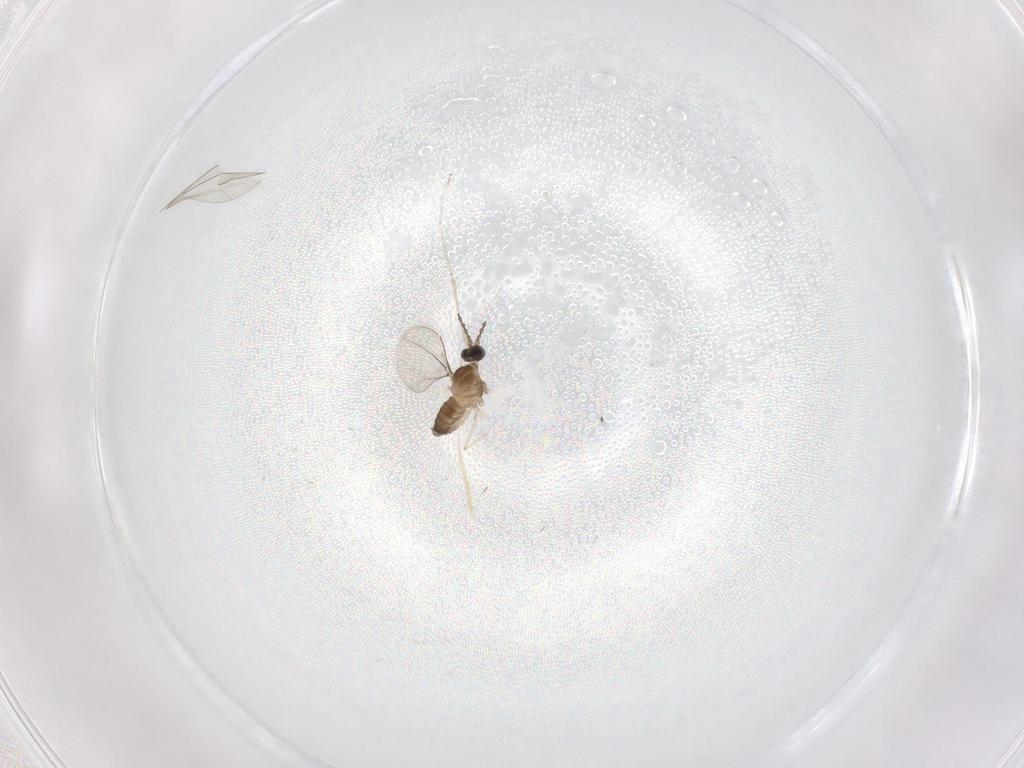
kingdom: Animalia
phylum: Arthropoda
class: Insecta
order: Diptera
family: Cecidomyiidae
